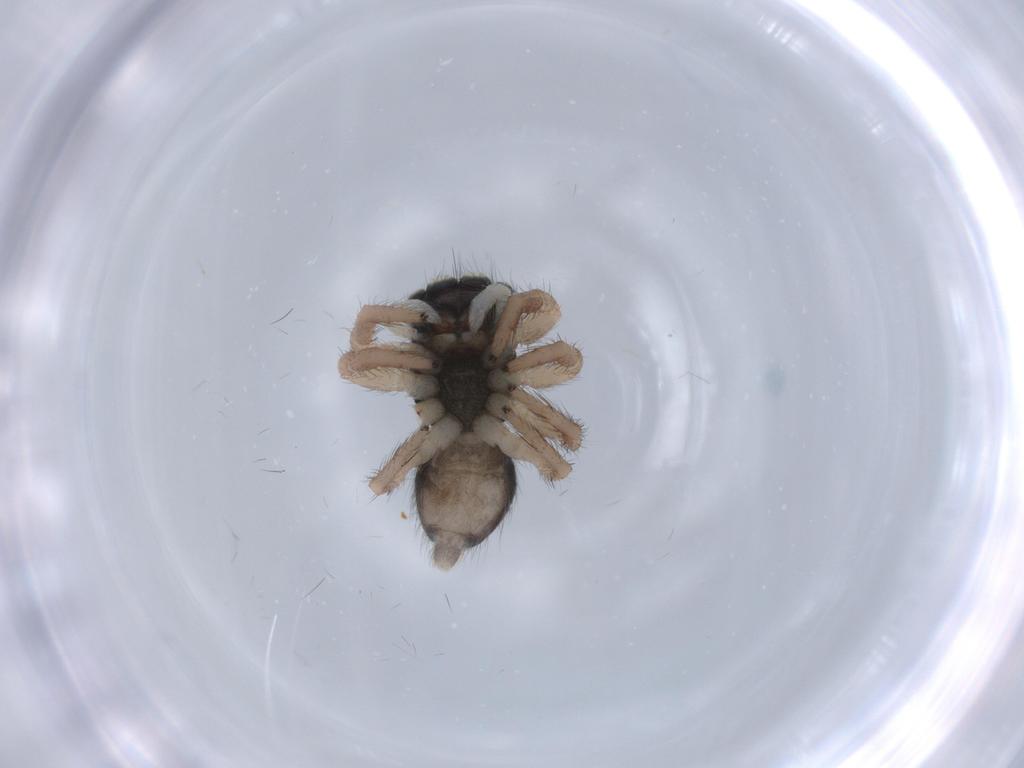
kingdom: Animalia
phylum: Arthropoda
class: Arachnida
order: Araneae
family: Salticidae
